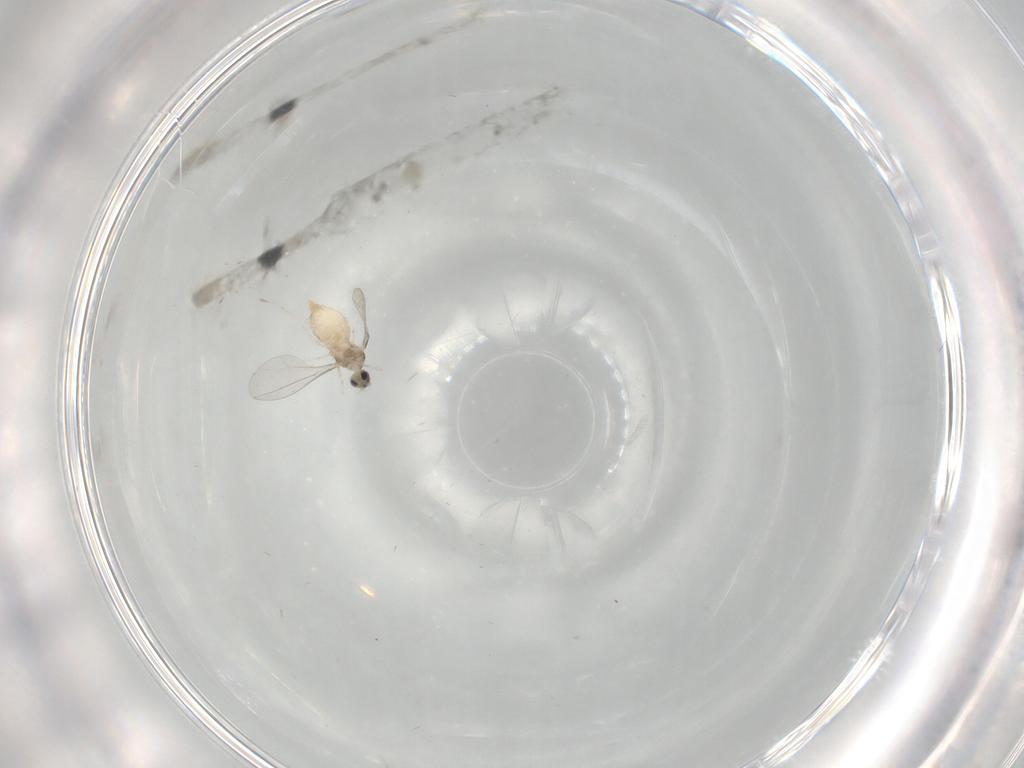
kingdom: Animalia
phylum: Arthropoda
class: Insecta
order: Diptera
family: Cecidomyiidae
